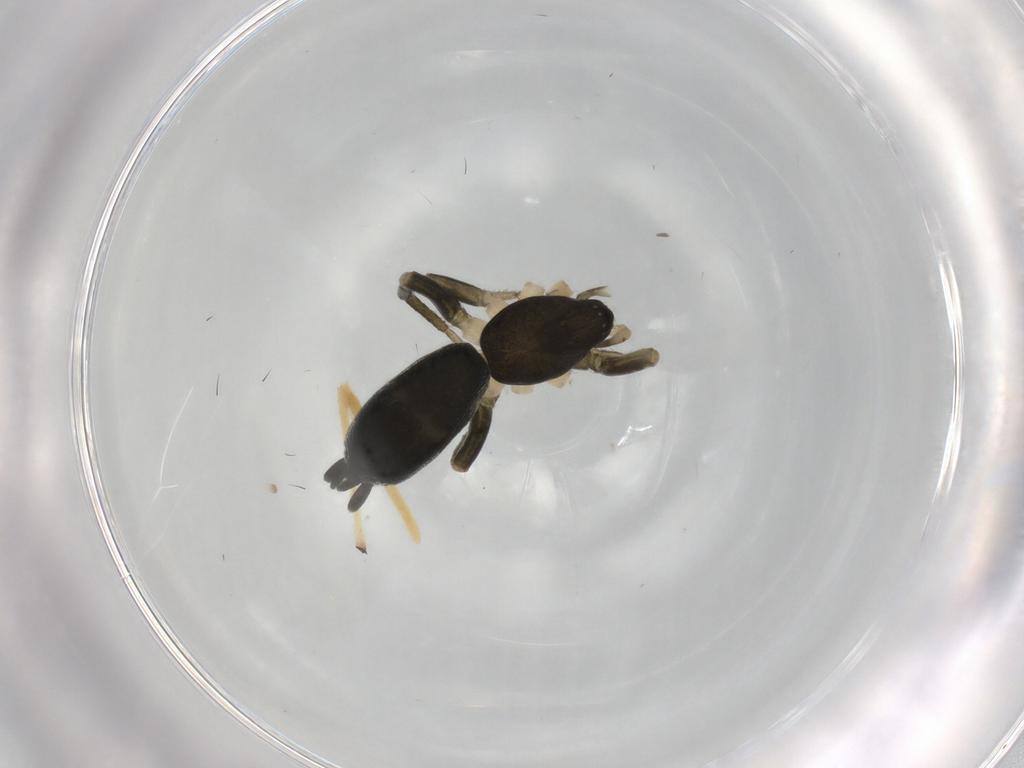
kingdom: Animalia
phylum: Arthropoda
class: Arachnida
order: Araneae
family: Gnaphosidae
